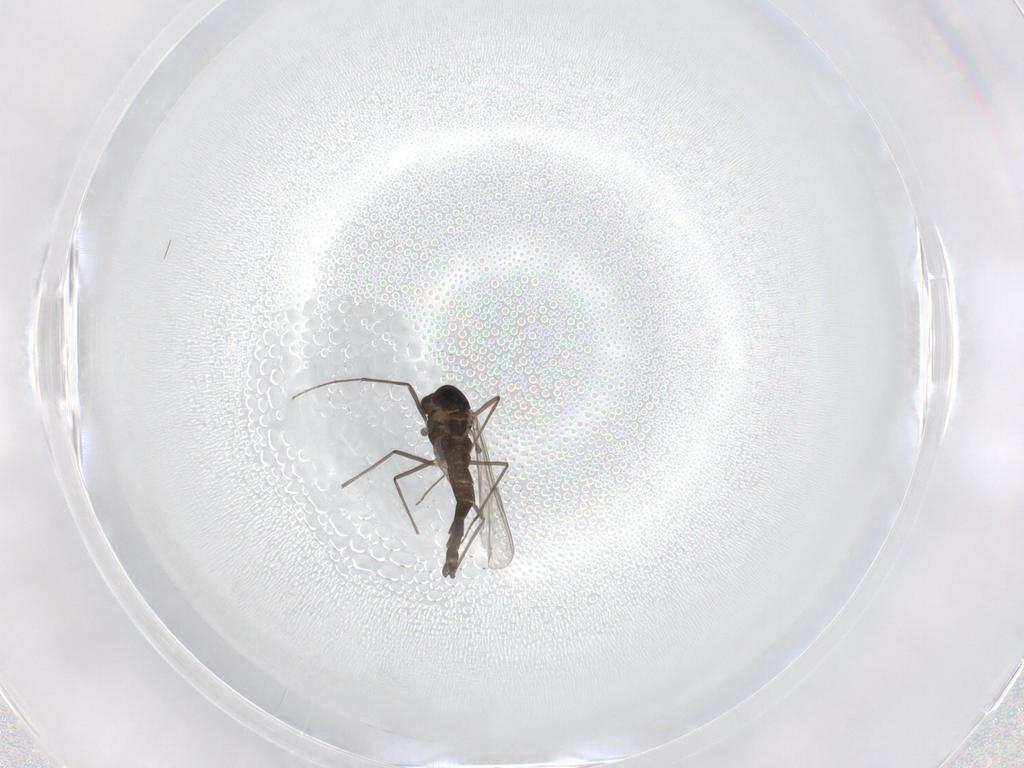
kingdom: Animalia
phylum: Arthropoda
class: Insecta
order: Diptera
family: Chironomidae
